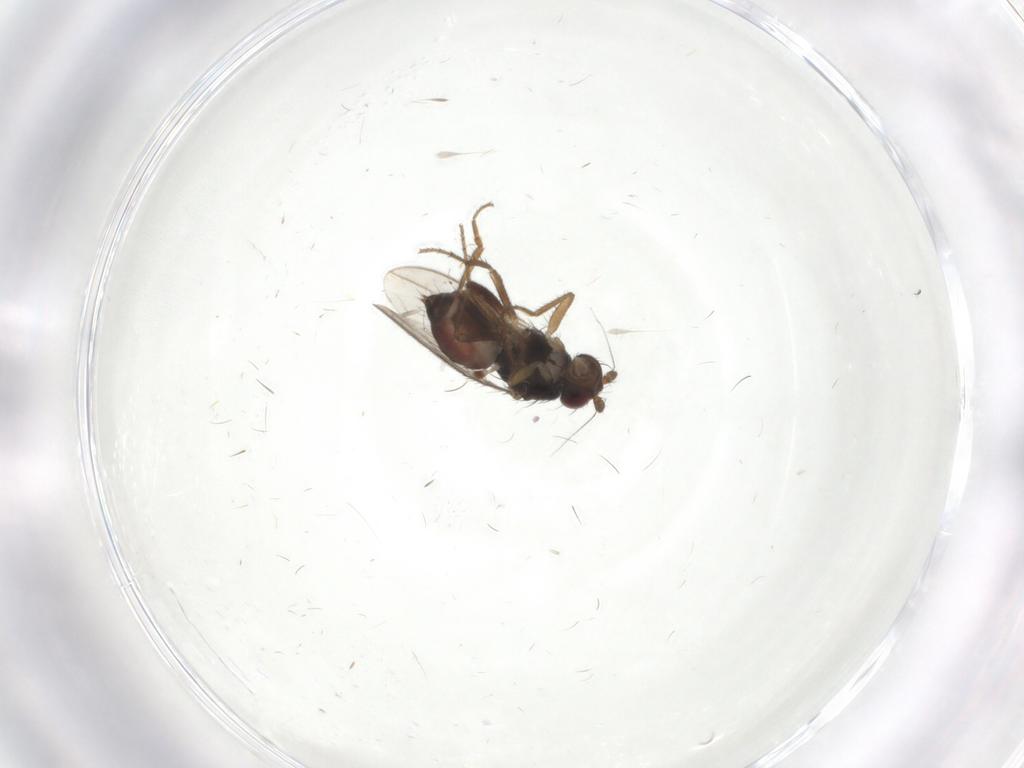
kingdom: Animalia
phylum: Arthropoda
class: Insecta
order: Diptera
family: Sphaeroceridae
